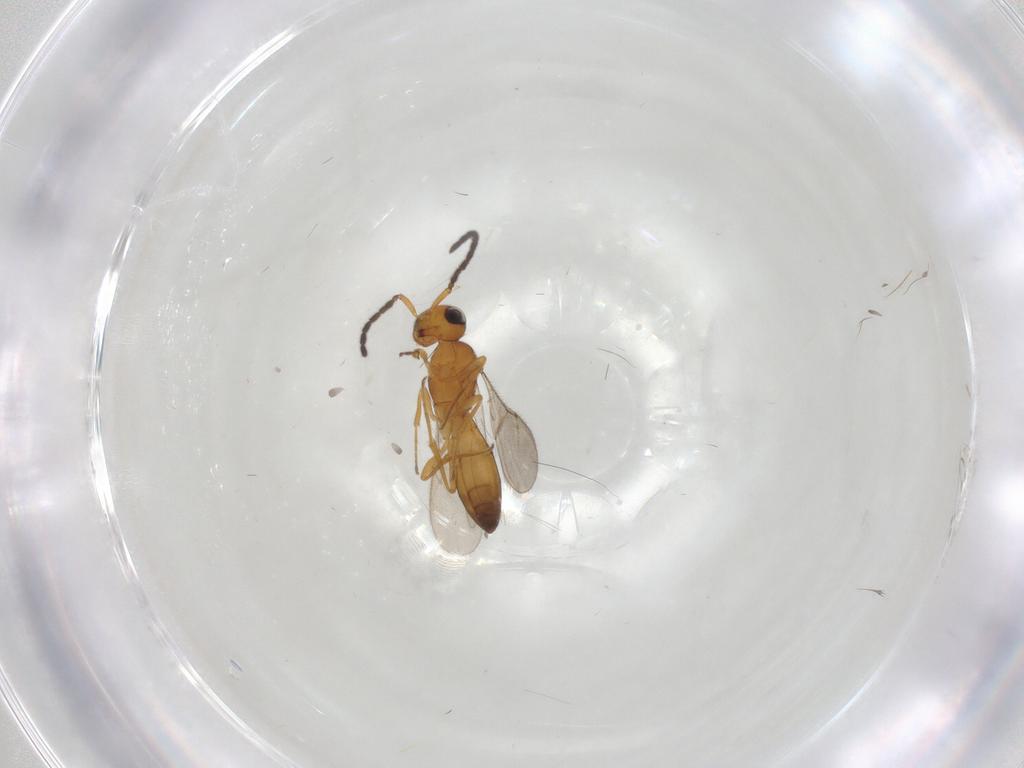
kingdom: Animalia
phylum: Arthropoda
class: Insecta
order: Hymenoptera
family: Scelionidae
